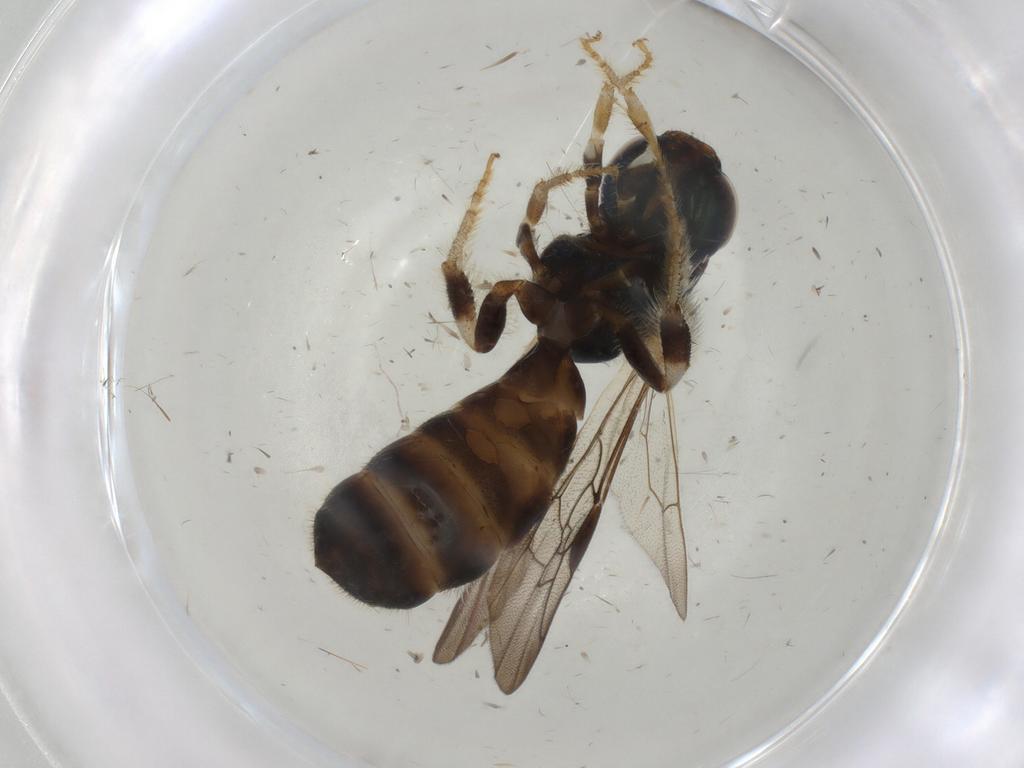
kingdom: Animalia
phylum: Arthropoda
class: Insecta
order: Hymenoptera
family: Apidae
